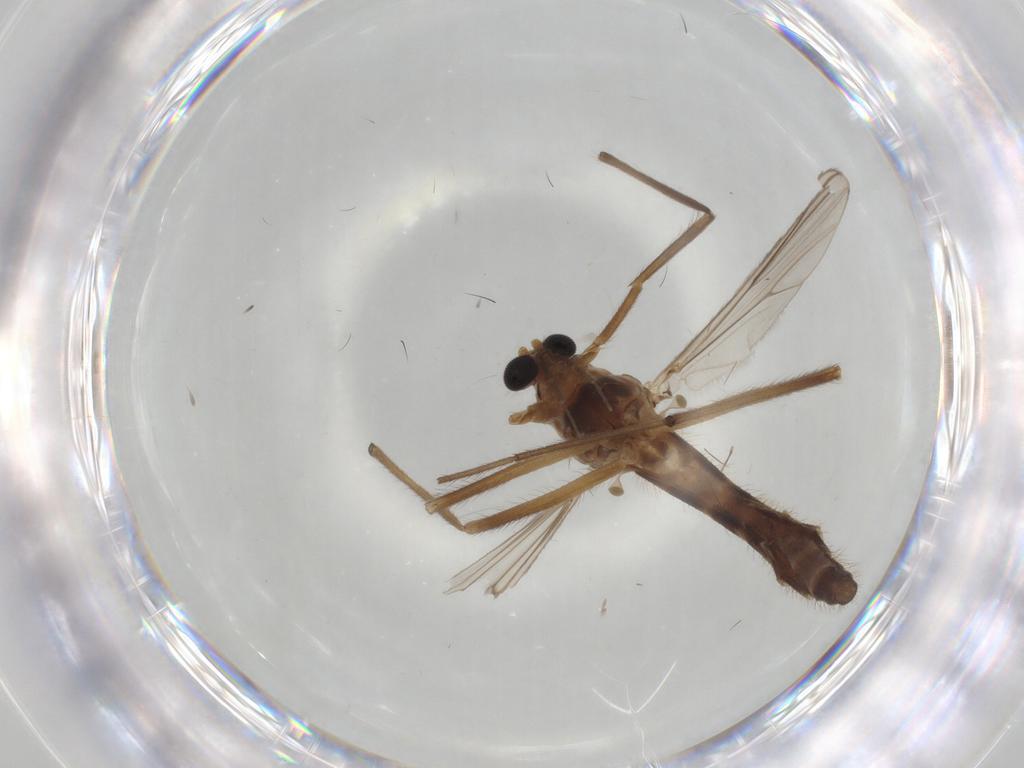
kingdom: Animalia
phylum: Arthropoda
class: Insecta
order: Diptera
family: Chironomidae
